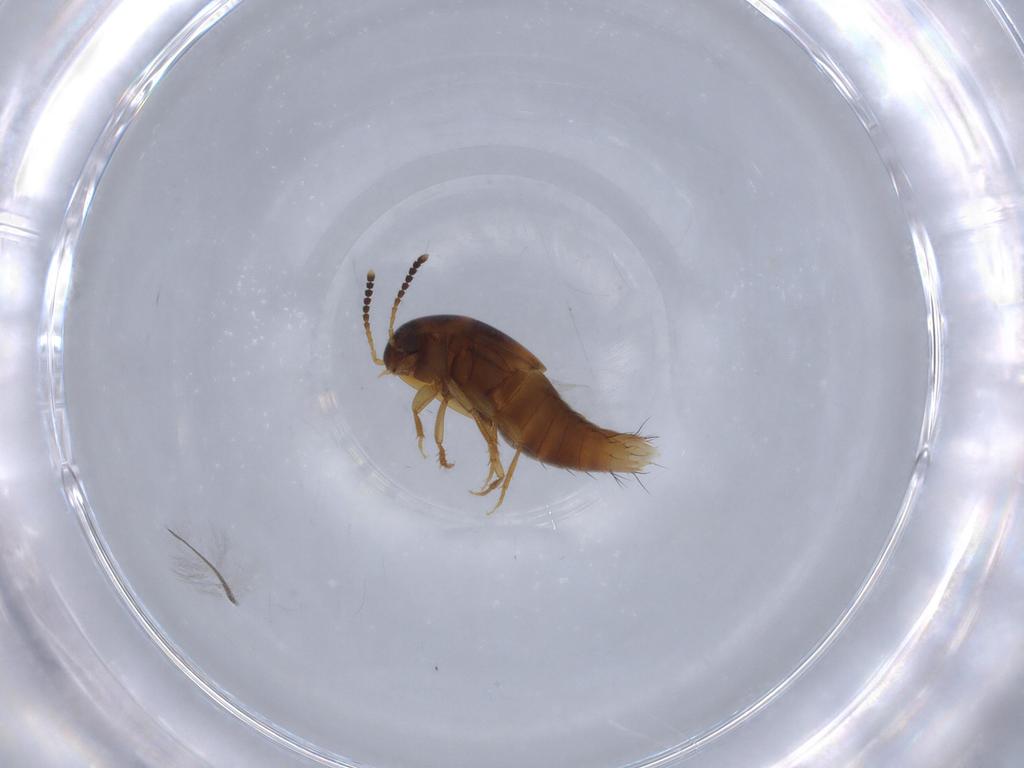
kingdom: Animalia
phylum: Arthropoda
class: Insecta
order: Coleoptera
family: Staphylinidae
